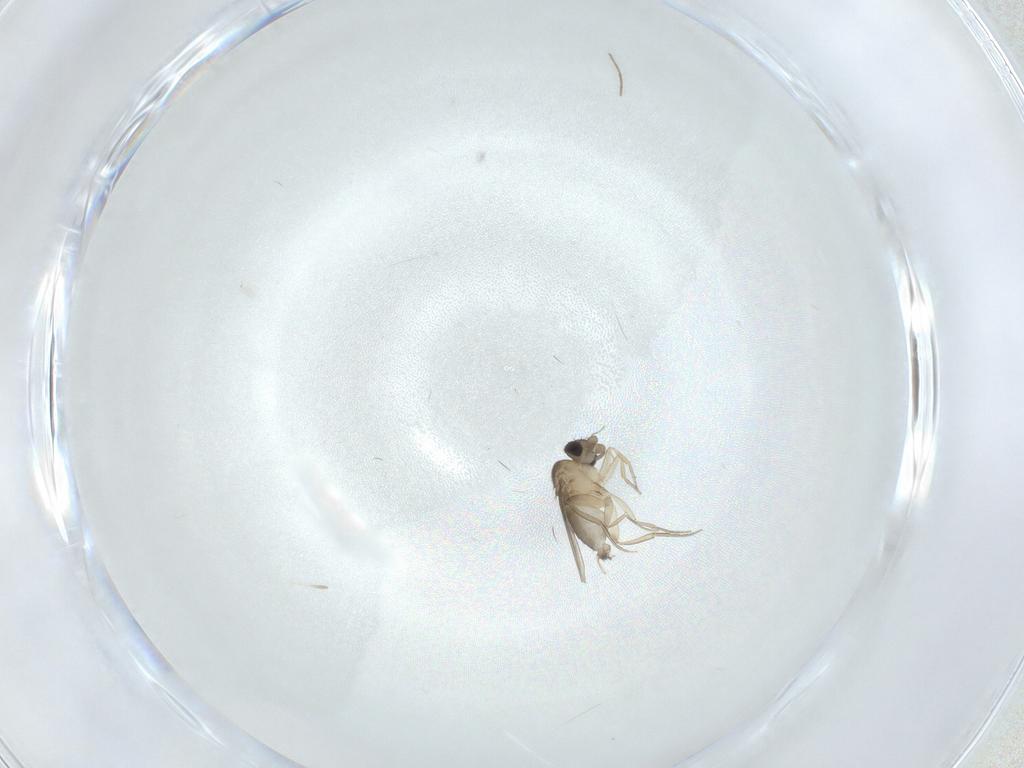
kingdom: Animalia
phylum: Arthropoda
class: Insecta
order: Diptera
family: Phoridae
